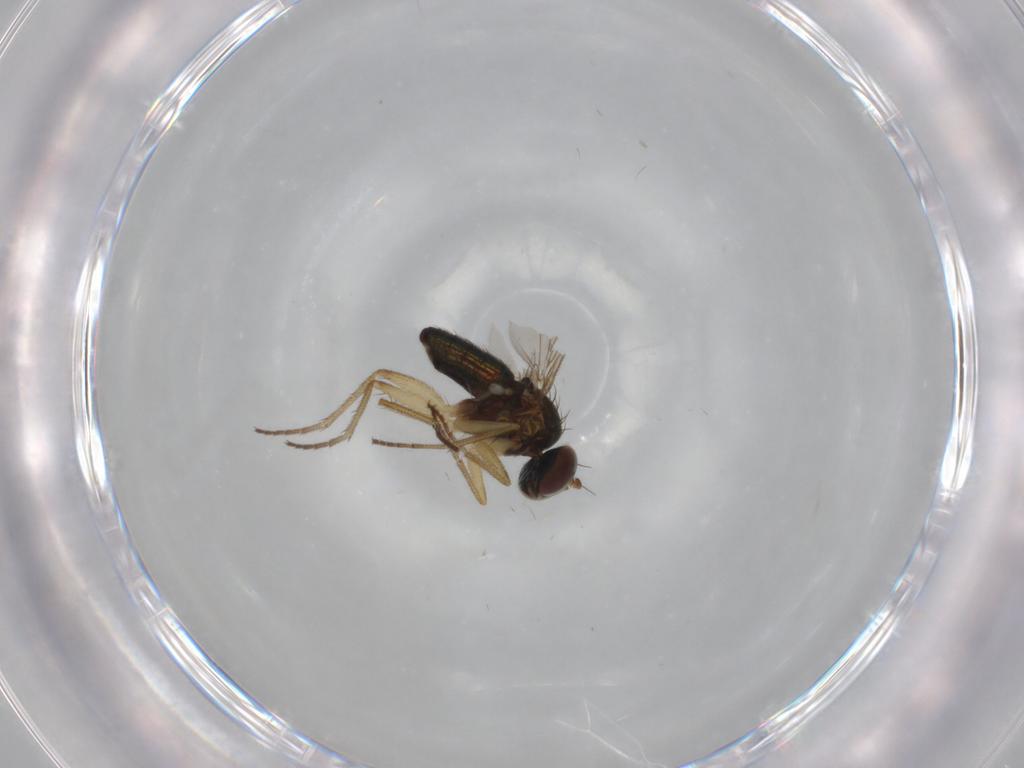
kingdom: Animalia
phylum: Arthropoda
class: Insecta
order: Diptera
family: Dolichopodidae
